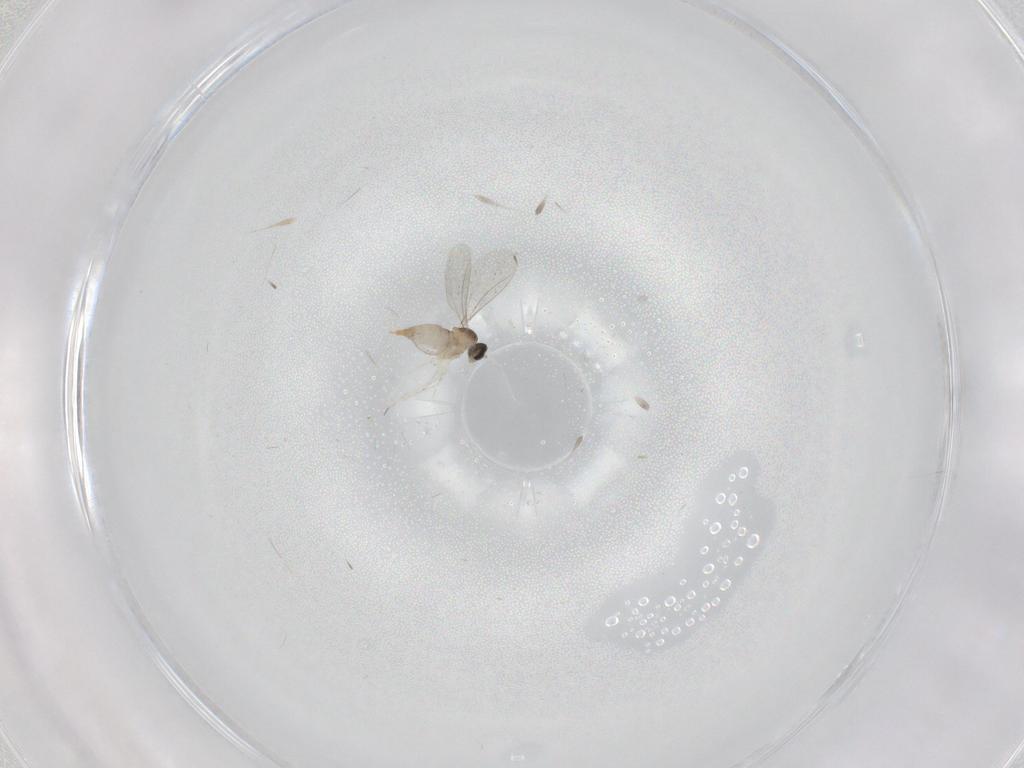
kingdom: Animalia
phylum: Arthropoda
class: Insecta
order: Diptera
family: Cecidomyiidae
